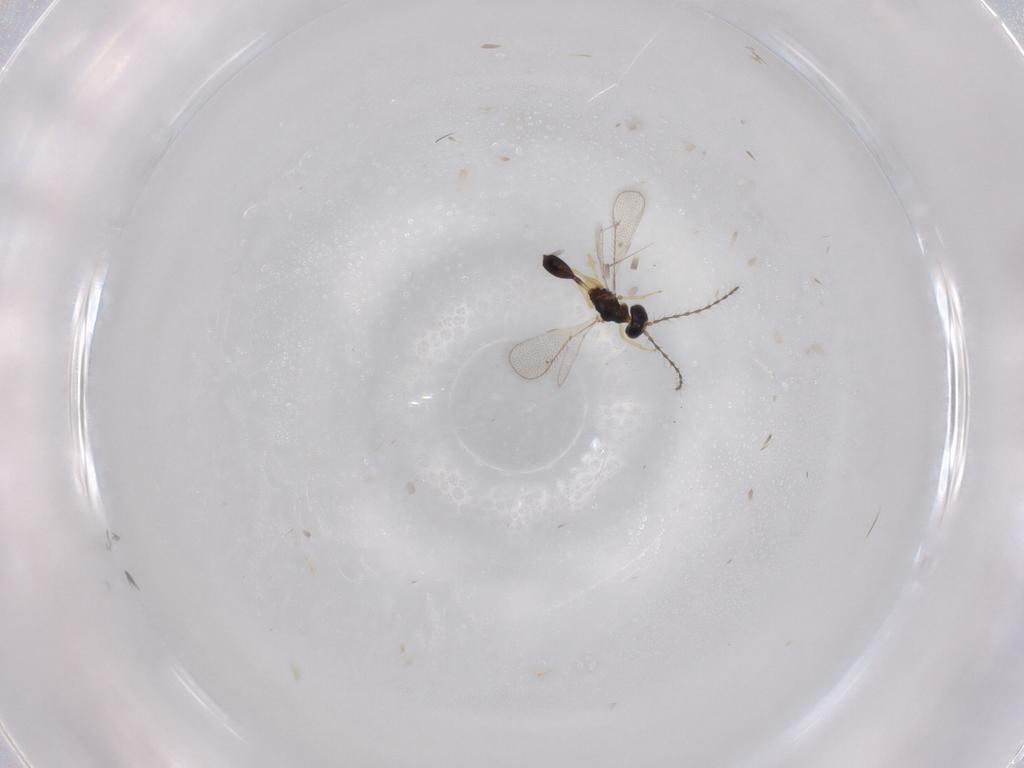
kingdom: Animalia
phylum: Arthropoda
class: Insecta
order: Hymenoptera
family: Diparidae
